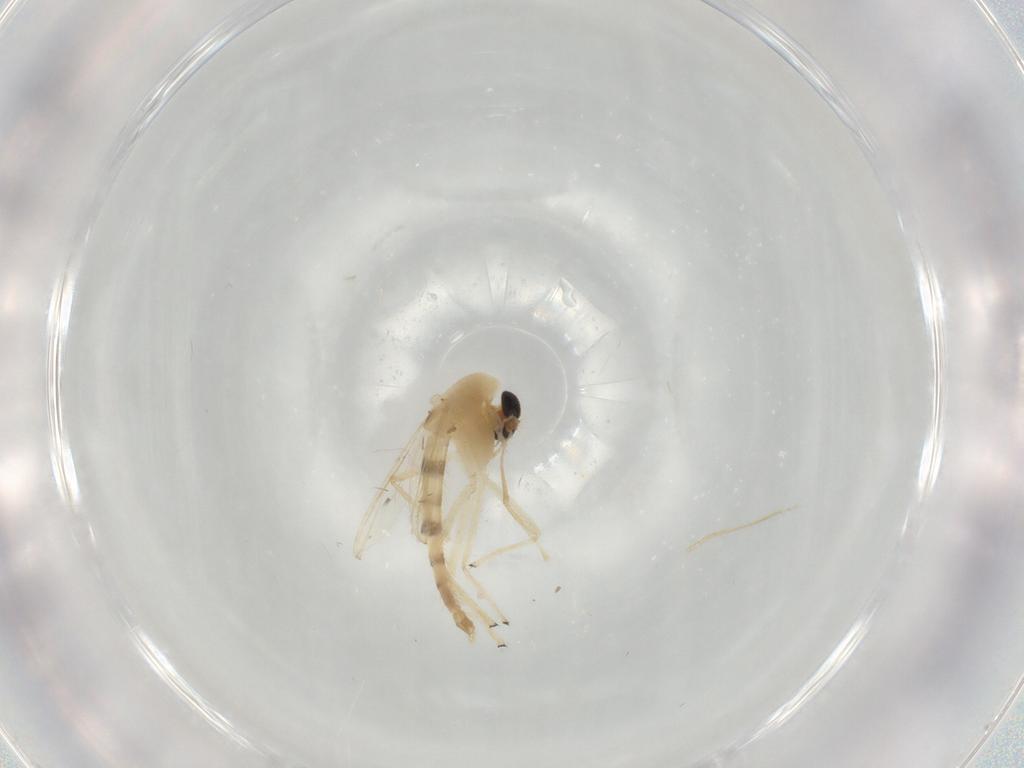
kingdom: Animalia
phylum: Arthropoda
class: Insecta
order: Diptera
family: Chironomidae
